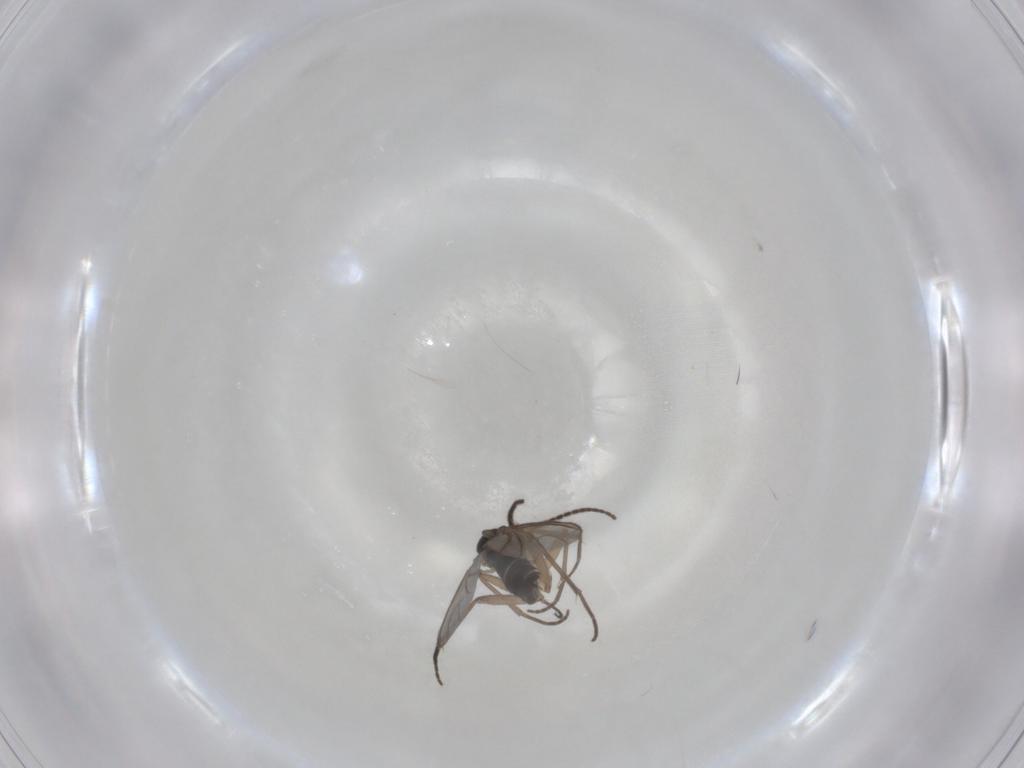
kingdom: Animalia
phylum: Arthropoda
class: Insecta
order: Diptera
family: Sciaridae
